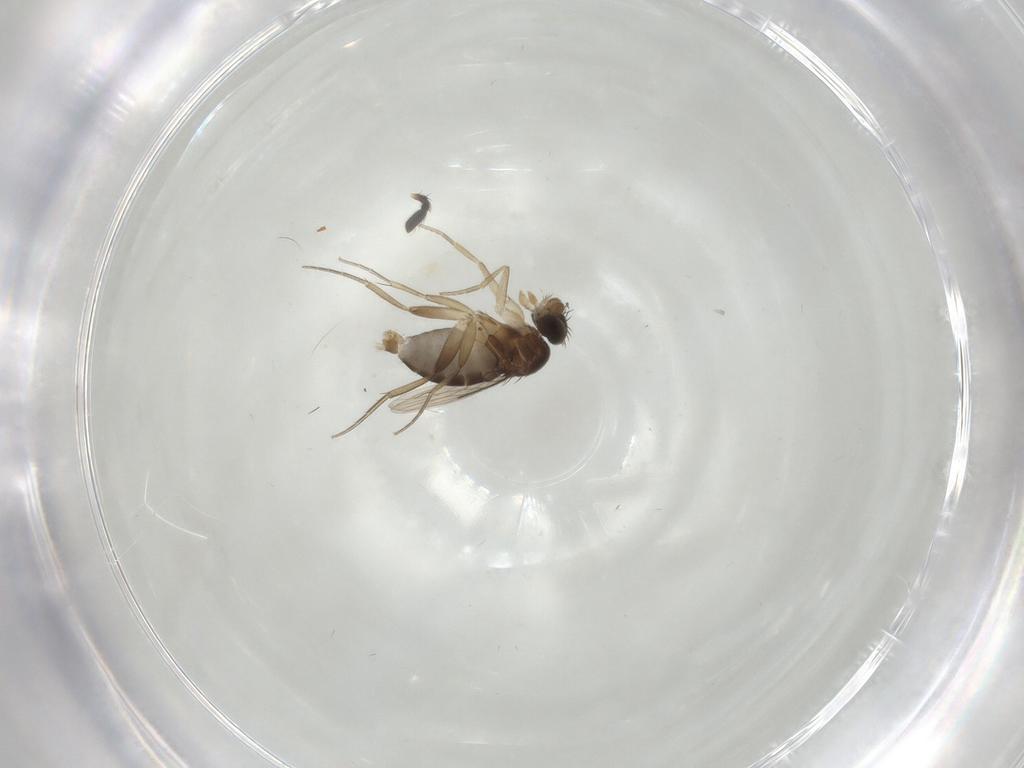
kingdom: Animalia
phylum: Arthropoda
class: Insecta
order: Diptera
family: Phoridae
